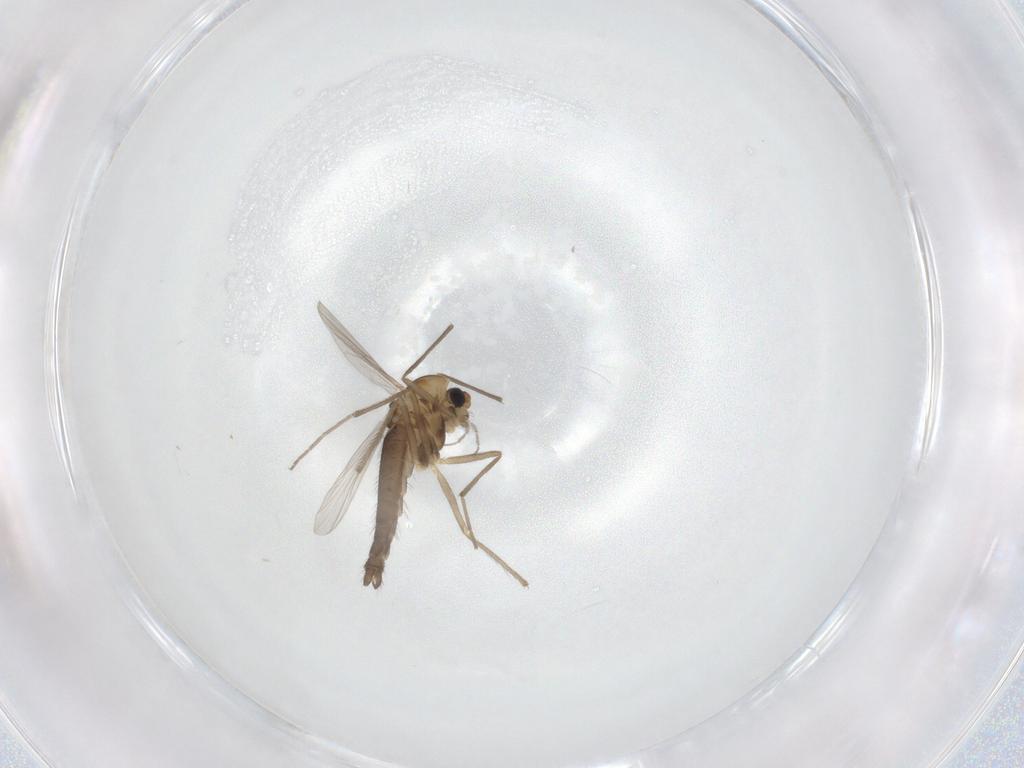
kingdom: Animalia
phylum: Arthropoda
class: Insecta
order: Diptera
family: Chironomidae
